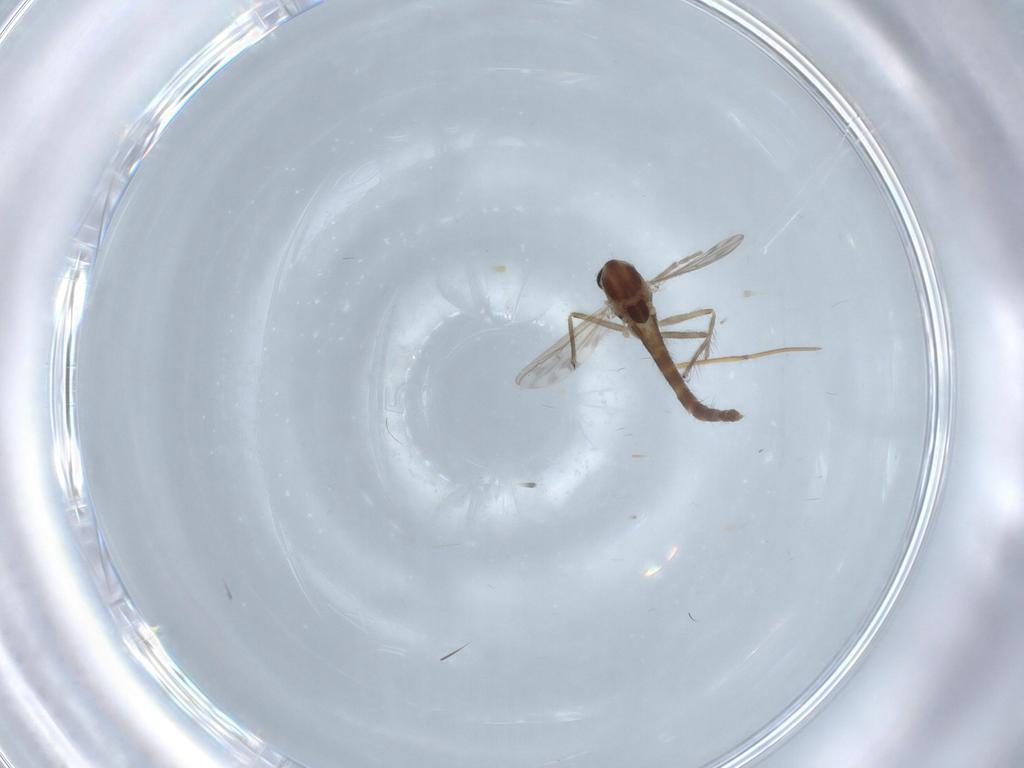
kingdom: Animalia
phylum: Arthropoda
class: Insecta
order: Diptera
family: Chironomidae
